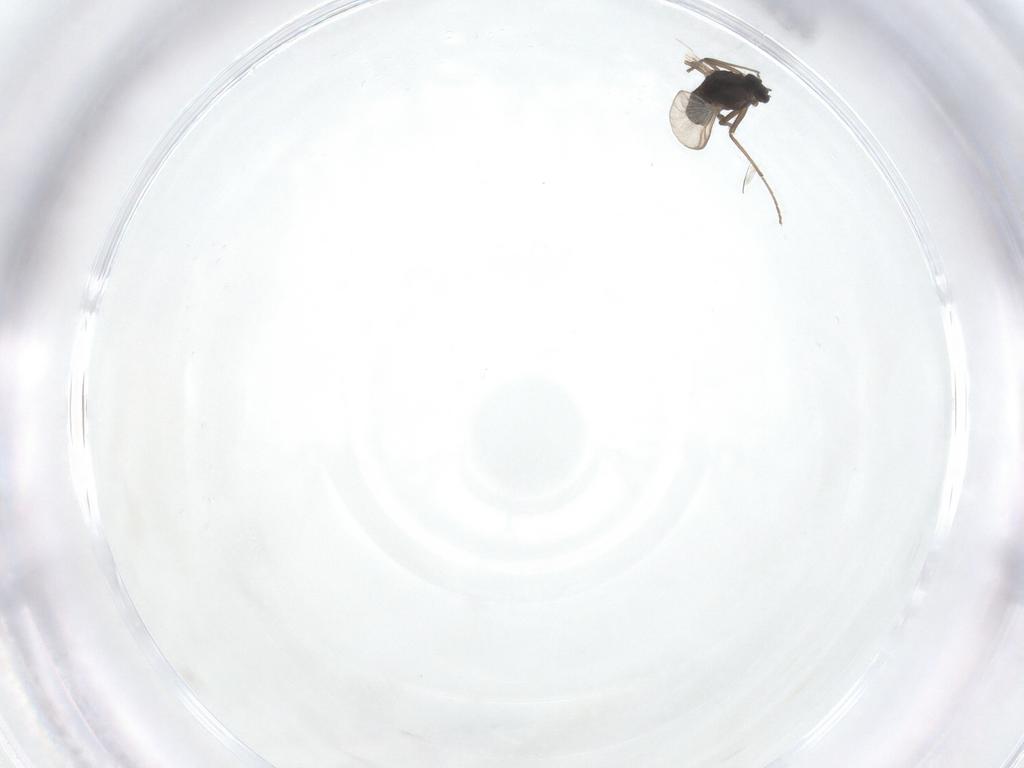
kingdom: Animalia
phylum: Arthropoda
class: Insecta
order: Diptera
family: Chironomidae
